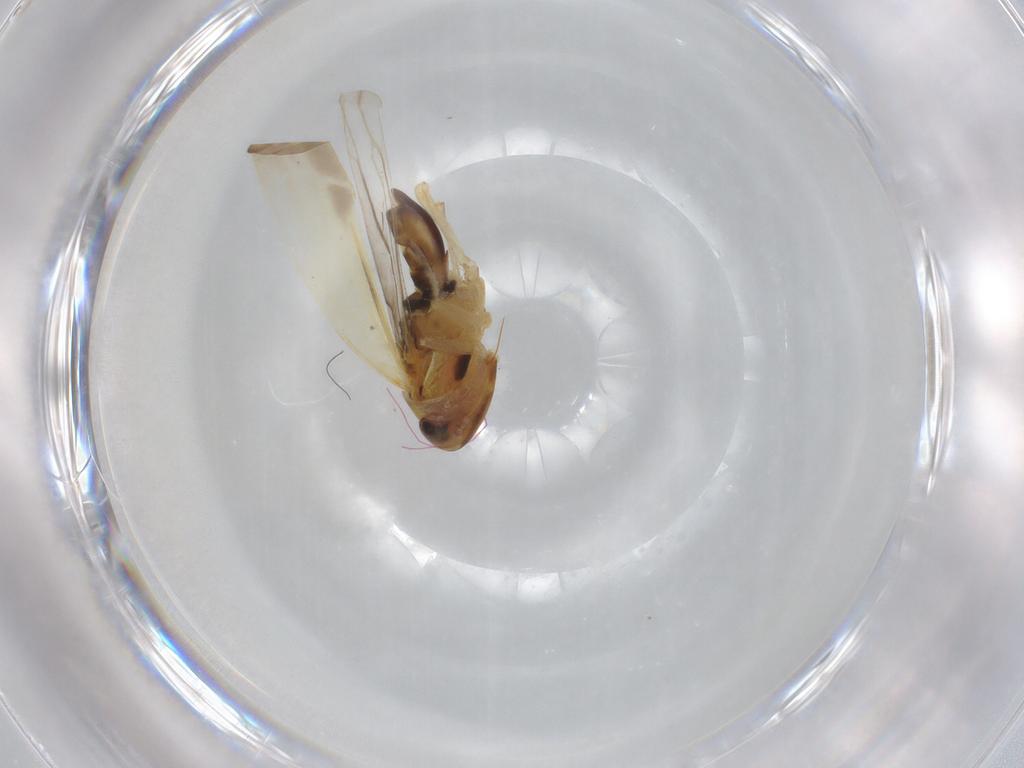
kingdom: Animalia
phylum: Arthropoda
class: Insecta
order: Hemiptera
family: Cicadellidae
